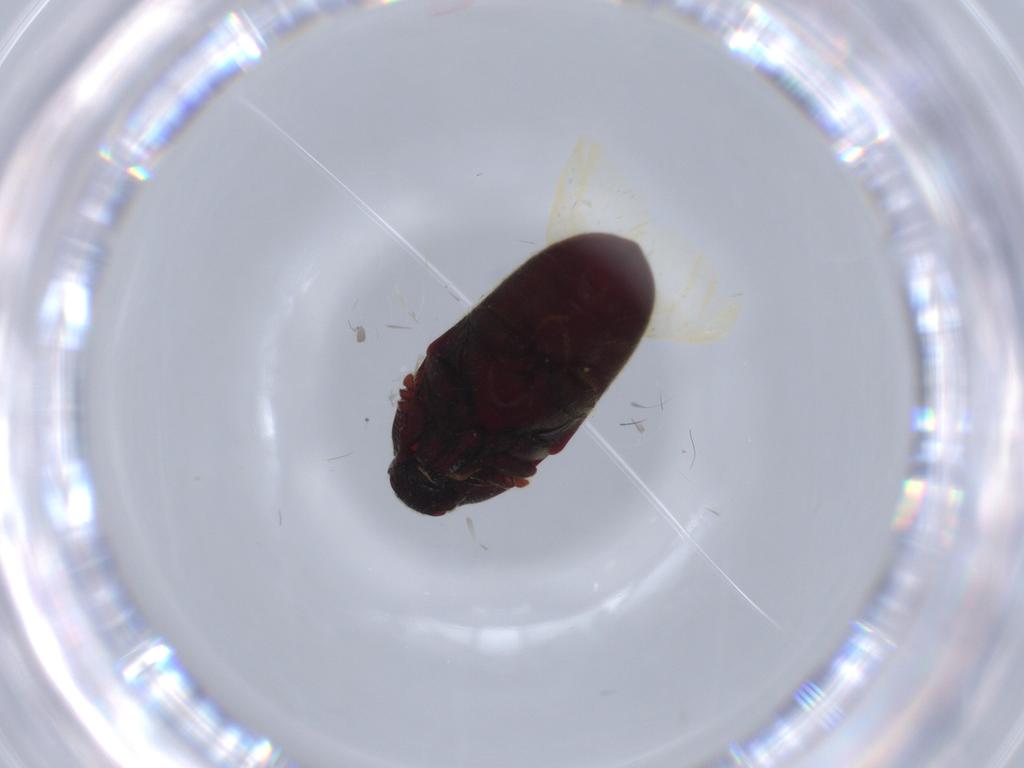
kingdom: Animalia
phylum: Arthropoda
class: Insecta
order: Coleoptera
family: Throscidae
